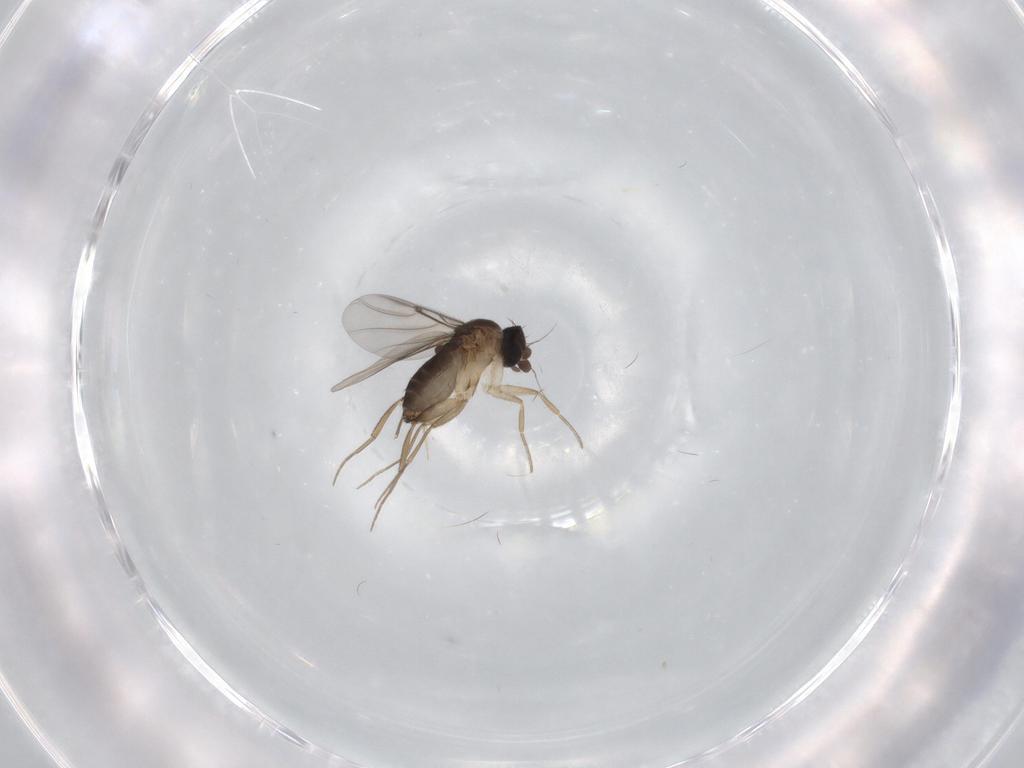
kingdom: Animalia
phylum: Arthropoda
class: Insecta
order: Diptera
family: Phoridae
